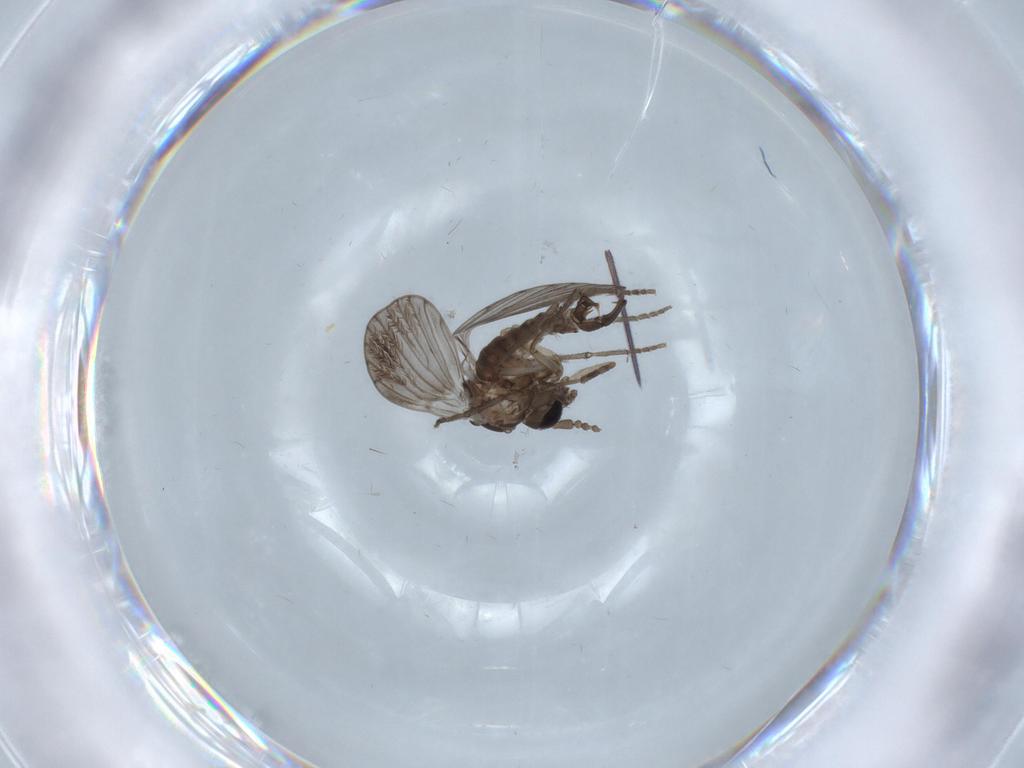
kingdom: Animalia
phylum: Arthropoda
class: Insecta
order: Diptera
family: Psychodidae
